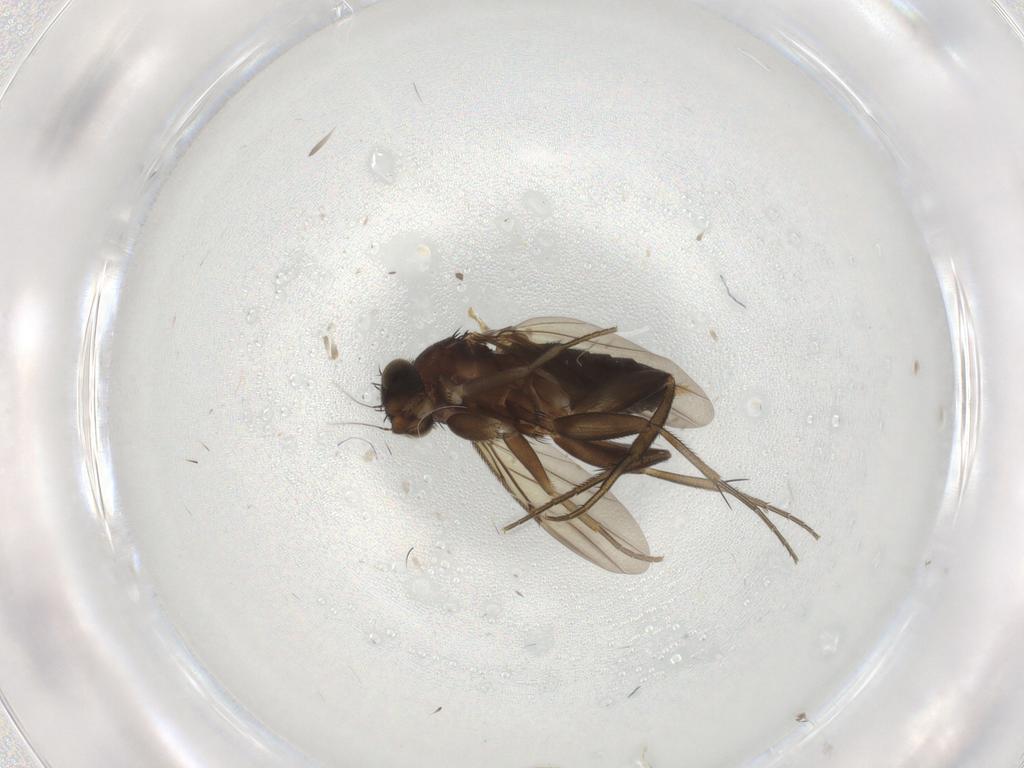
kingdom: Animalia
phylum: Arthropoda
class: Insecta
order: Diptera
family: Phoridae
